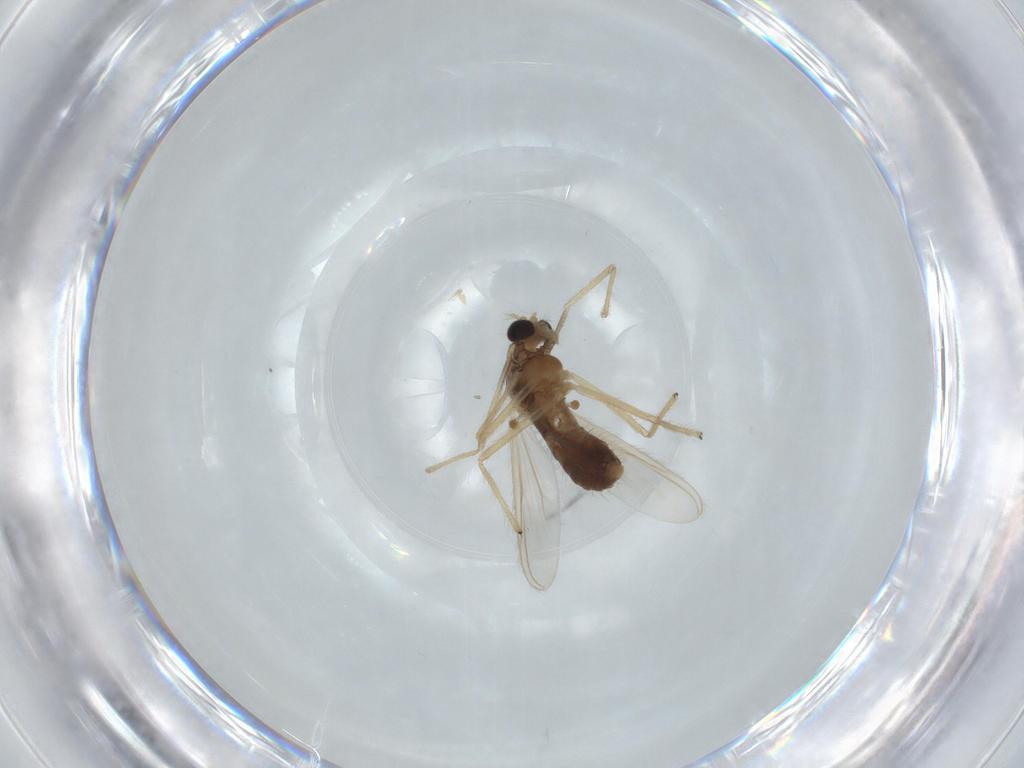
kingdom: Animalia
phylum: Arthropoda
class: Insecta
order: Diptera
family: Chironomidae
